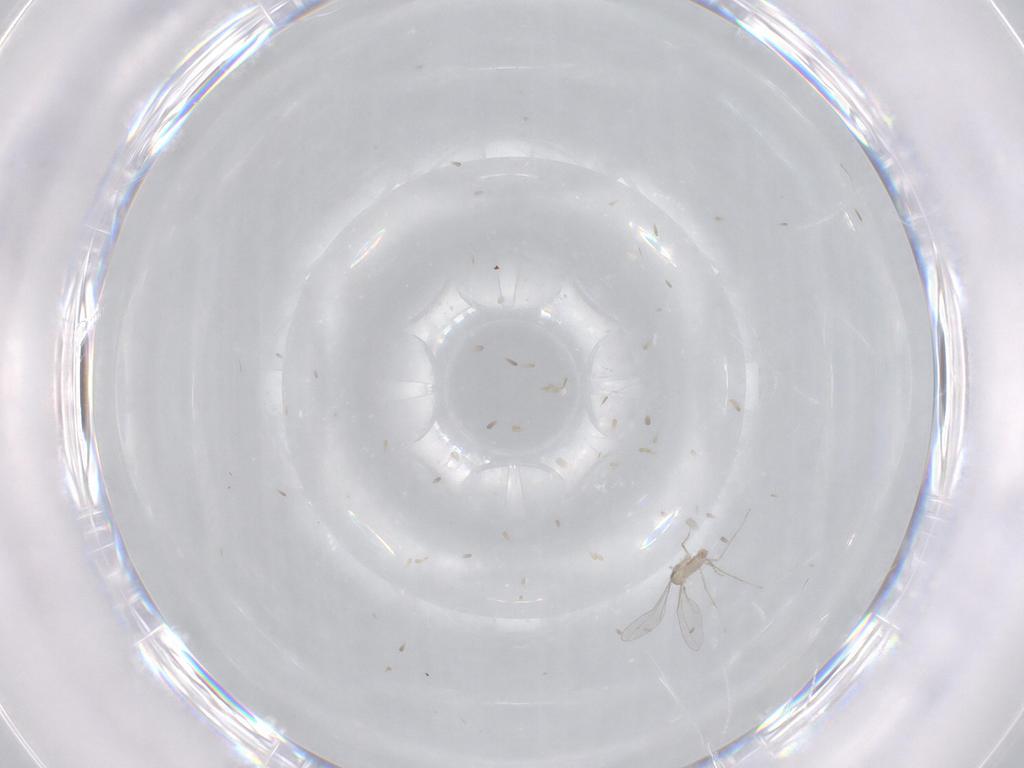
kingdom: Animalia
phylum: Arthropoda
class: Insecta
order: Diptera
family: Cecidomyiidae
